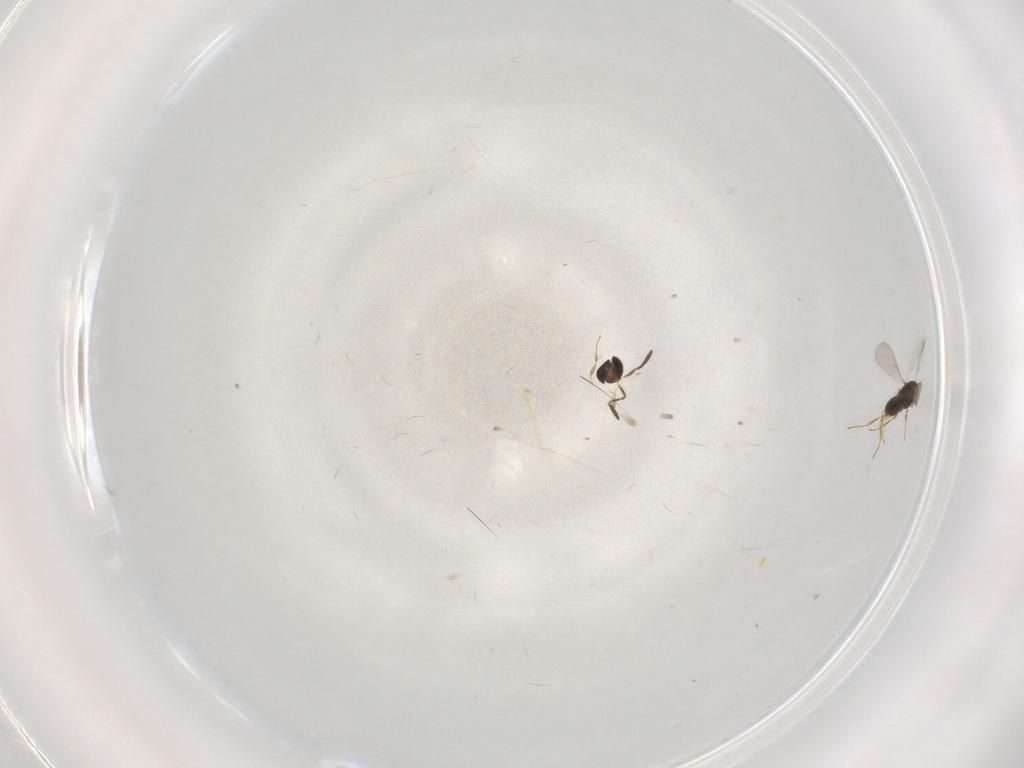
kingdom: Animalia
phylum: Arthropoda
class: Insecta
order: Hymenoptera
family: Scelionidae
